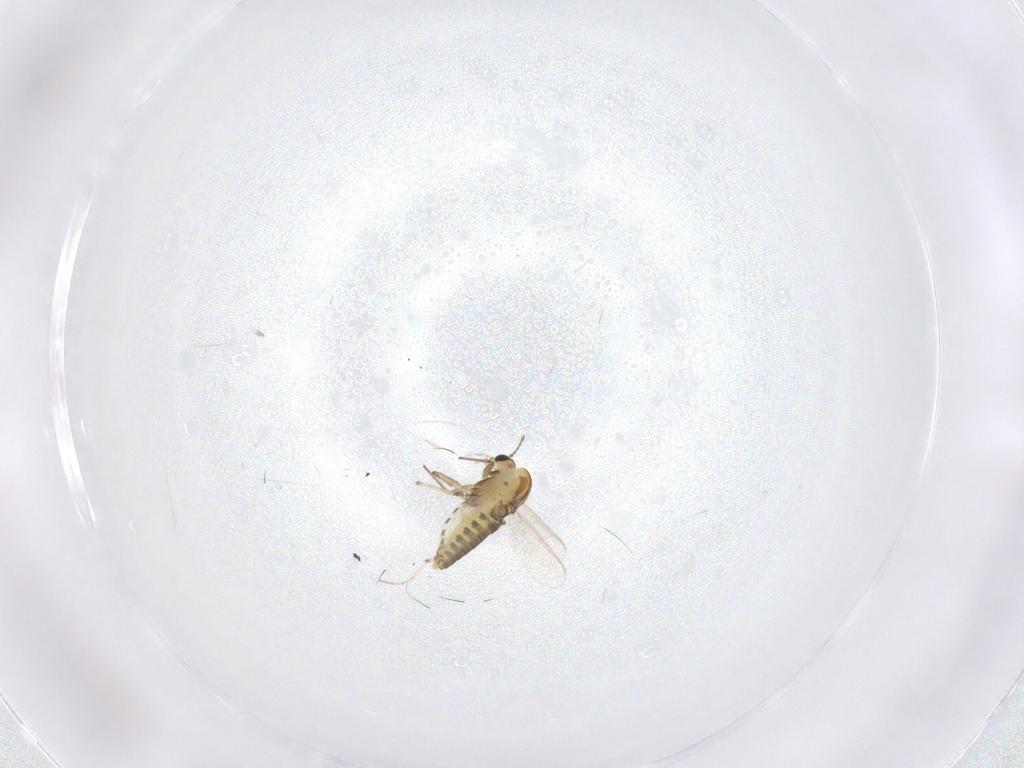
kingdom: Animalia
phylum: Arthropoda
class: Insecta
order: Diptera
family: Chironomidae
